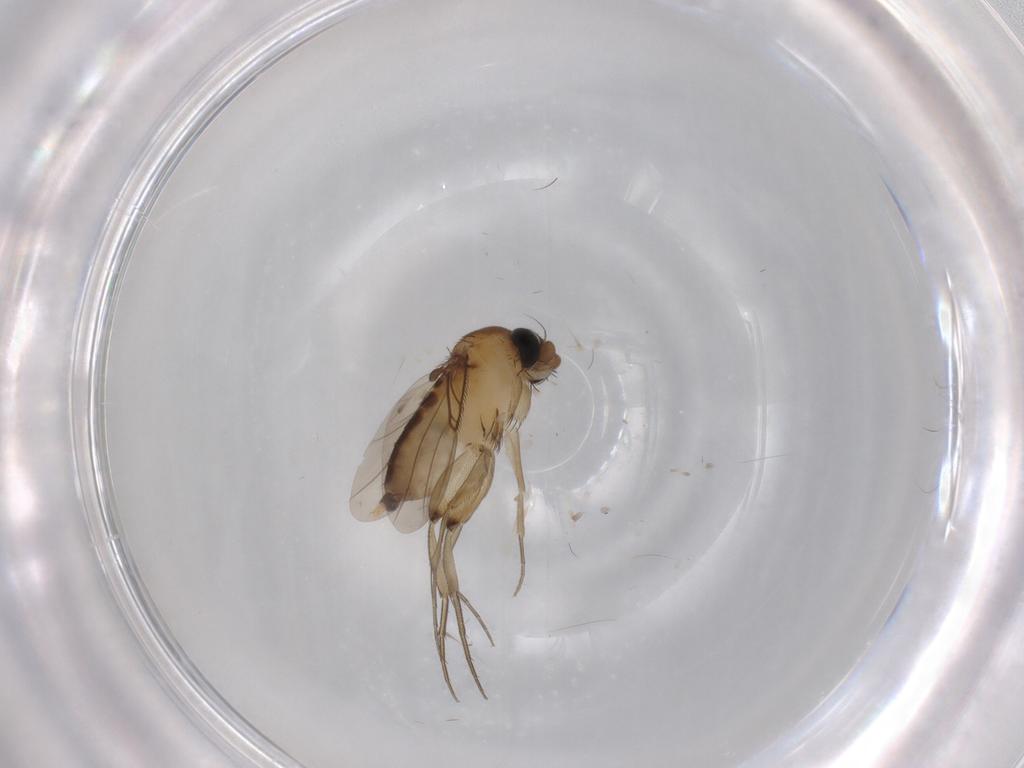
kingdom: Animalia
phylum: Arthropoda
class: Insecta
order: Diptera
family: Phoridae
